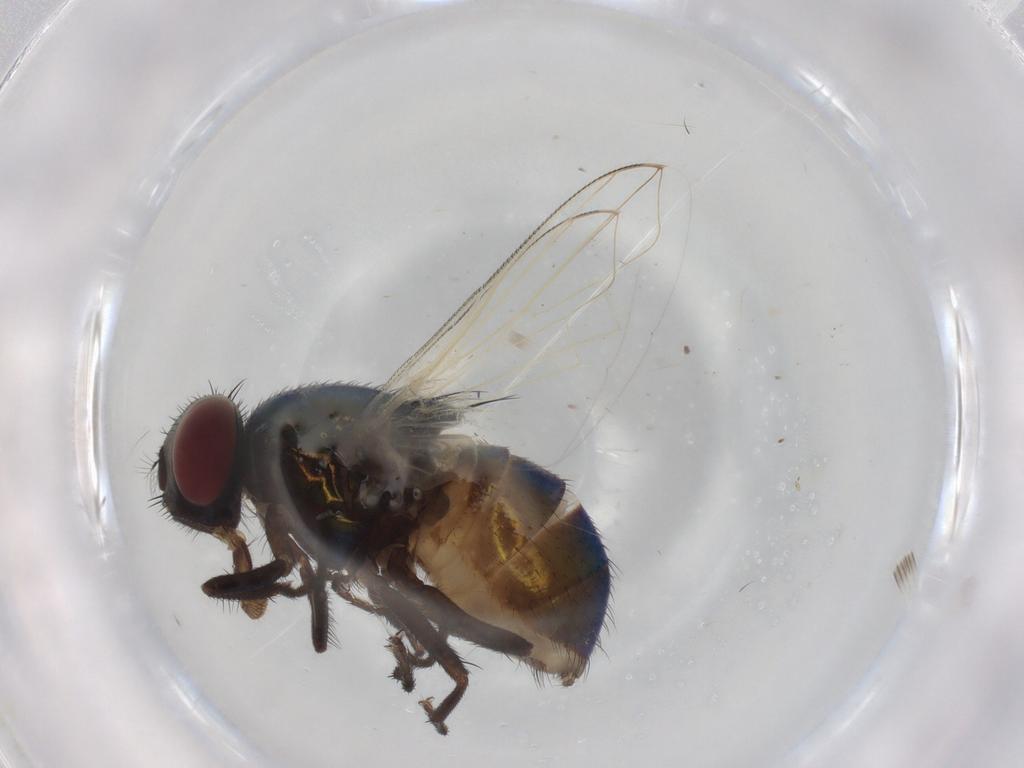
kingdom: Animalia
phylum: Arthropoda
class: Insecta
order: Diptera
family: Muscidae
